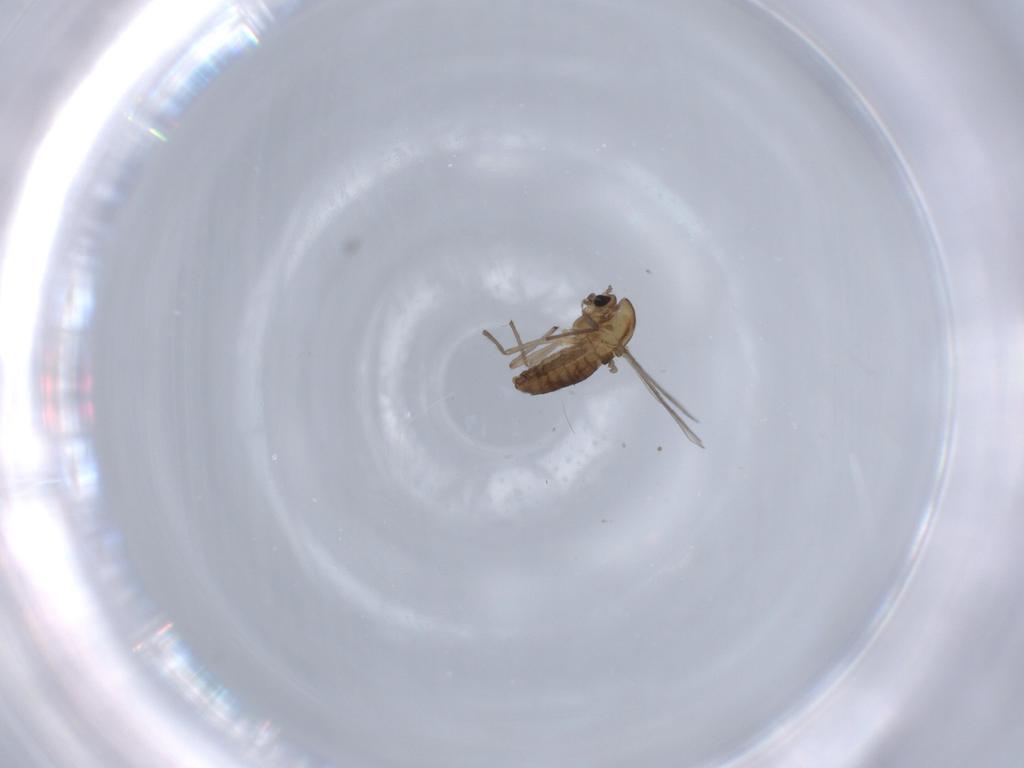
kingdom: Animalia
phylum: Arthropoda
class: Insecta
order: Diptera
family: Chironomidae
